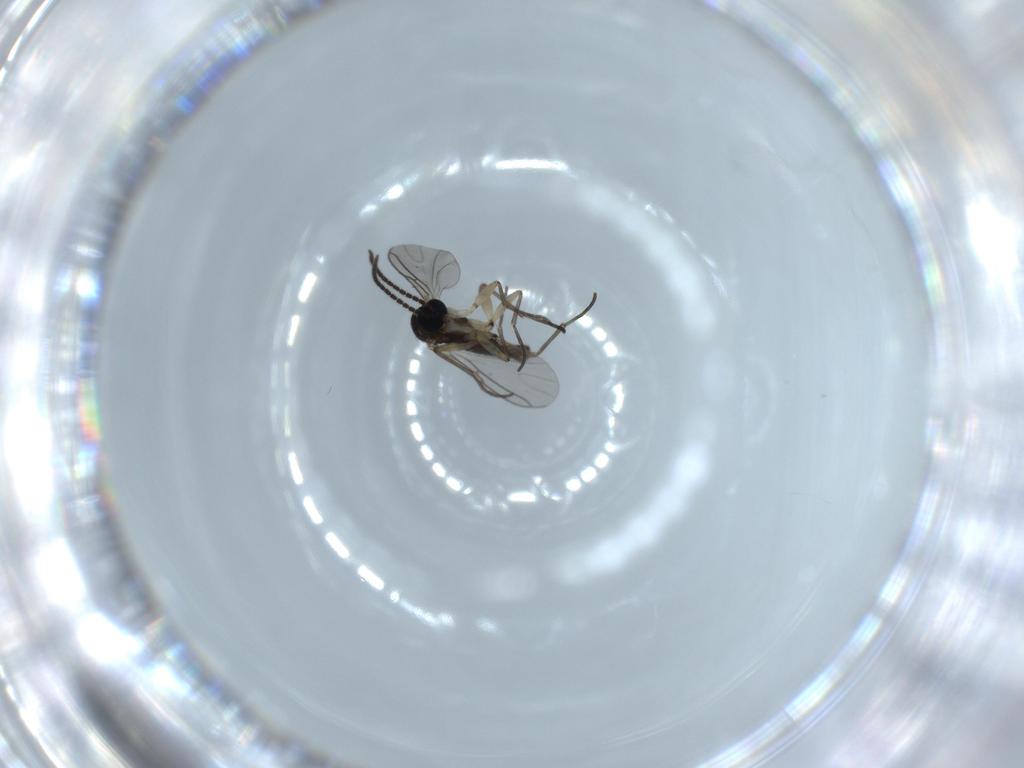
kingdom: Animalia
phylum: Arthropoda
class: Insecta
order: Diptera
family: Sciaridae
